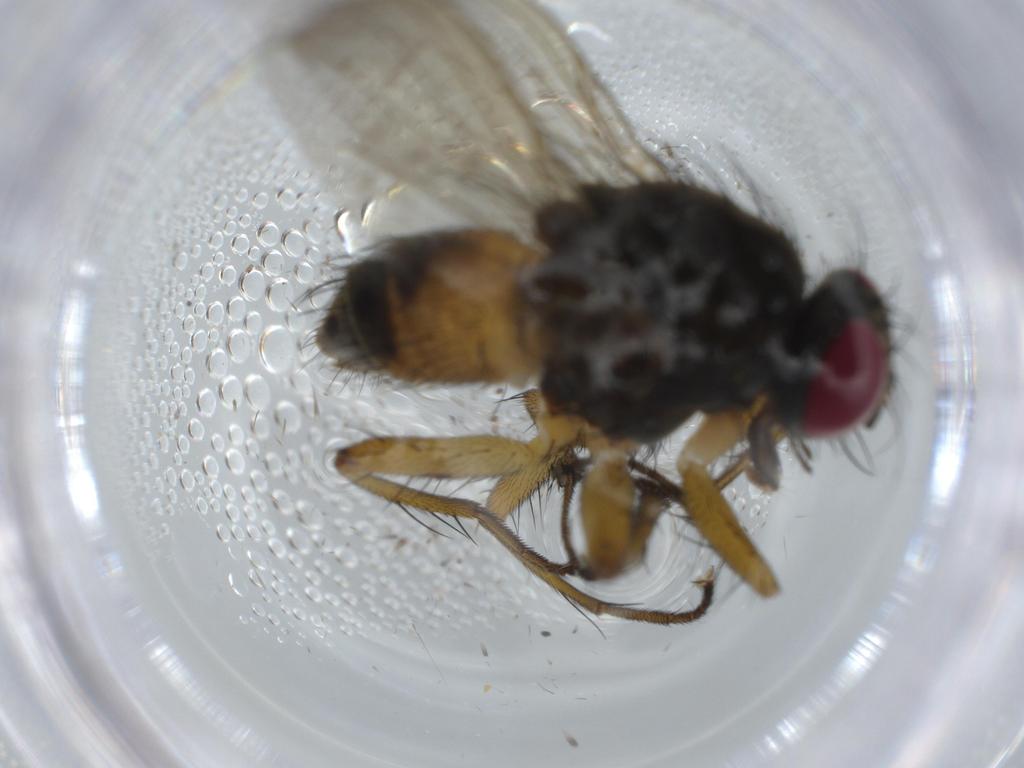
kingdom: Animalia
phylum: Arthropoda
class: Insecta
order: Diptera
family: Muscidae
